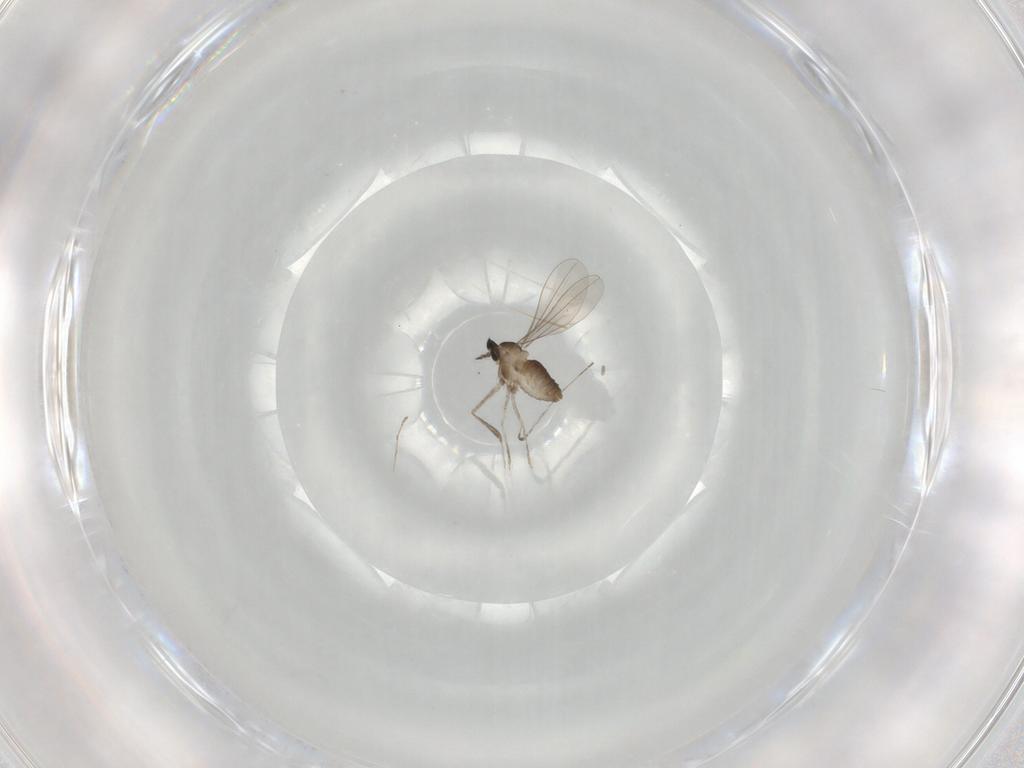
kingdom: Animalia
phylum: Arthropoda
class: Insecta
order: Diptera
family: Cecidomyiidae
